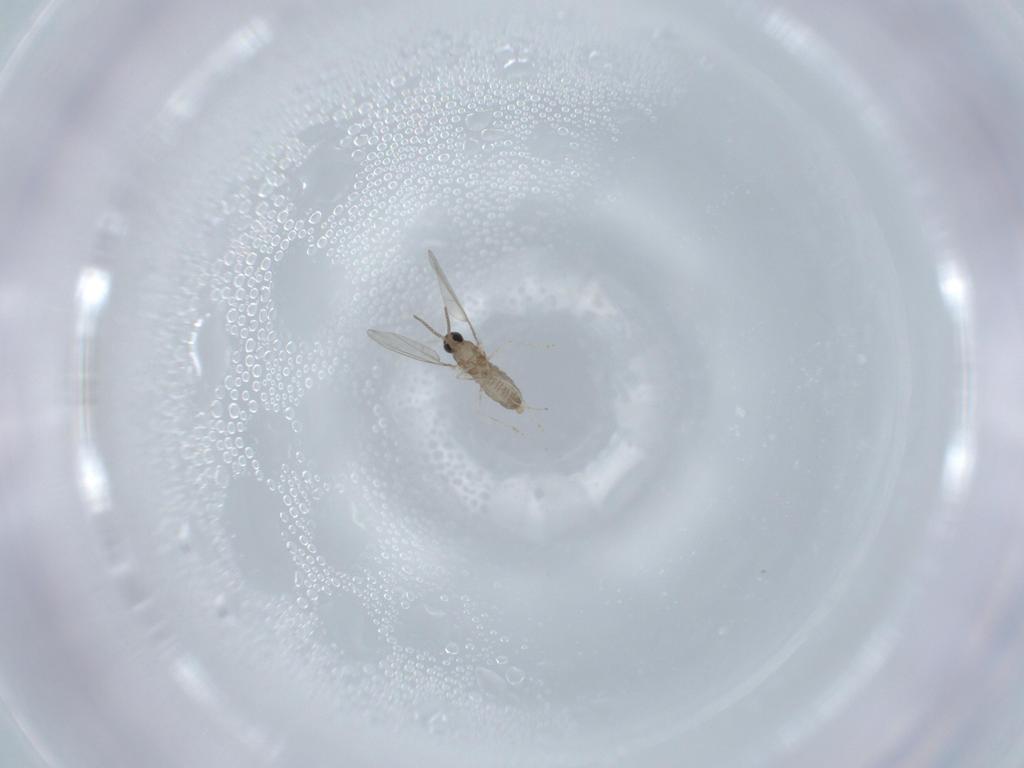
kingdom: Animalia
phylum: Arthropoda
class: Insecta
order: Diptera
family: Cecidomyiidae
